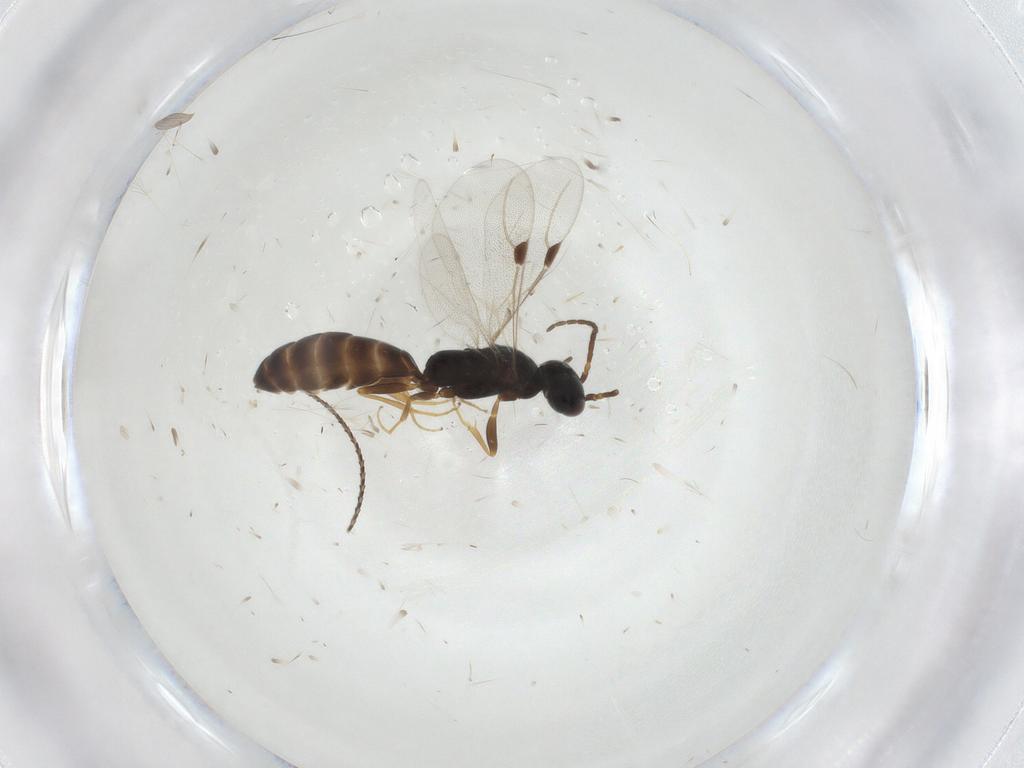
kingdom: Animalia
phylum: Arthropoda
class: Insecta
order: Hymenoptera
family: Bethylidae
